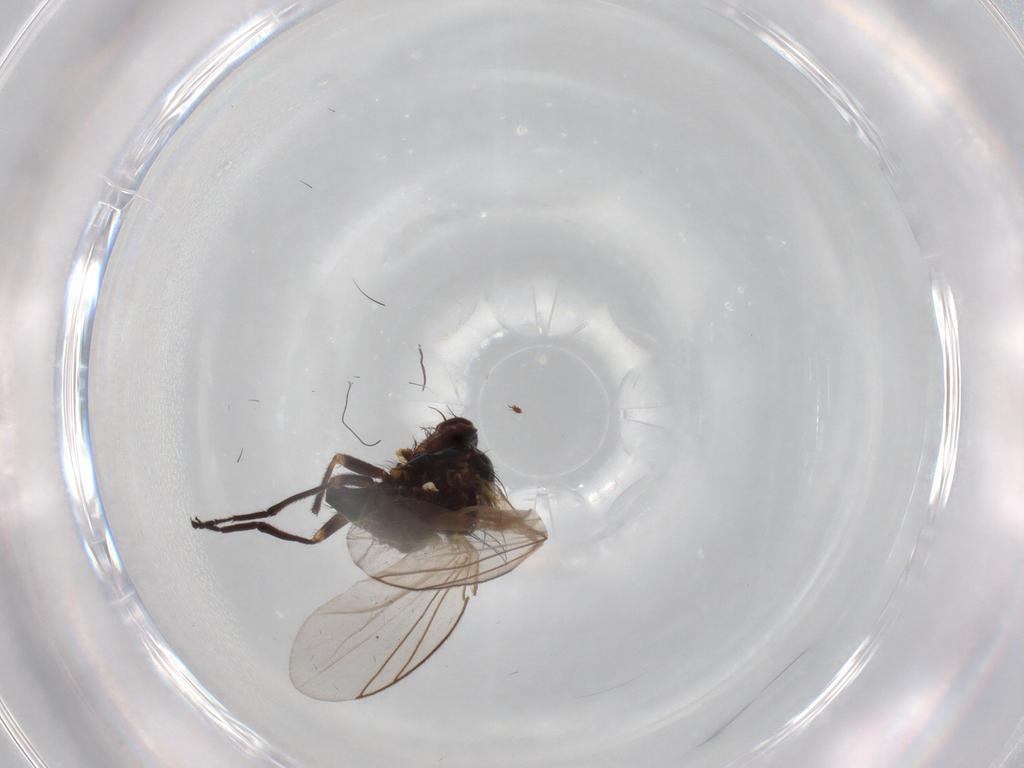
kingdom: Animalia
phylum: Arthropoda
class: Insecta
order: Diptera
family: Agromyzidae
